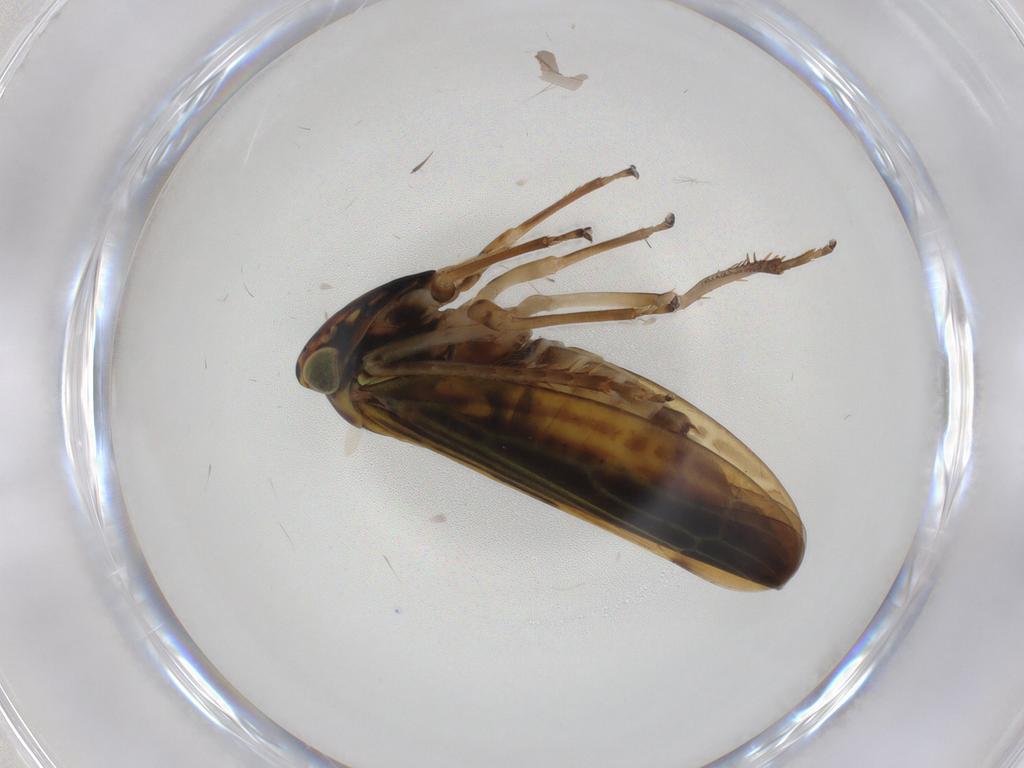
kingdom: Animalia
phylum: Arthropoda
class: Insecta
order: Hemiptera
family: Cicadellidae
